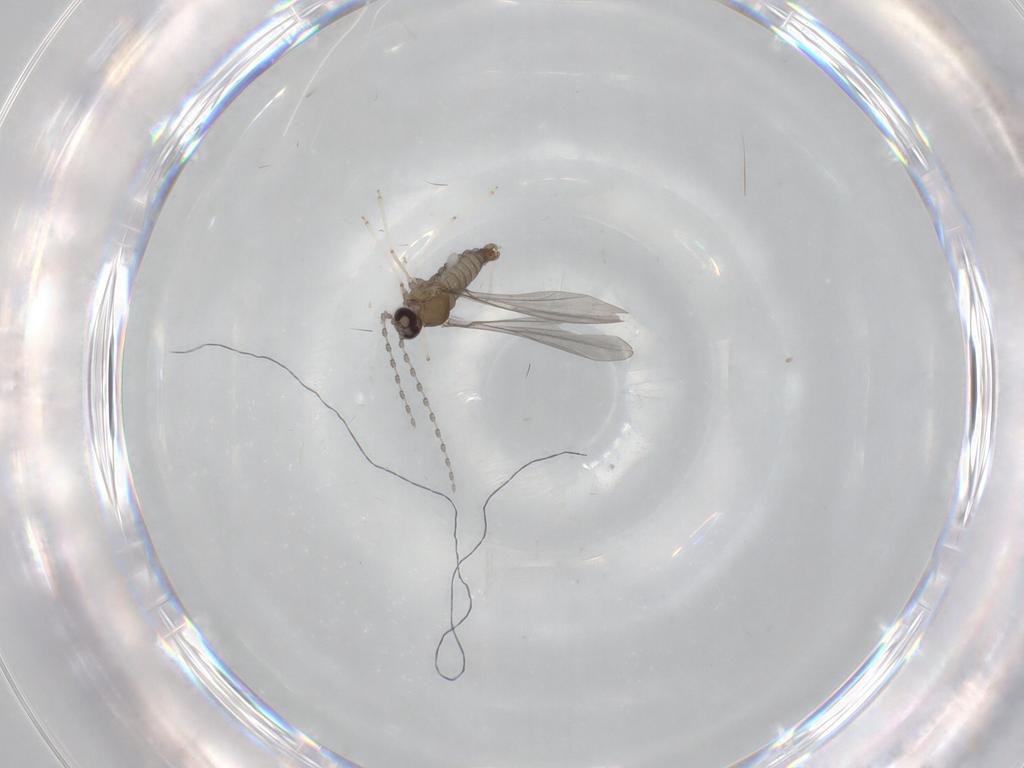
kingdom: Animalia
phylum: Arthropoda
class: Insecta
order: Diptera
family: Cecidomyiidae
